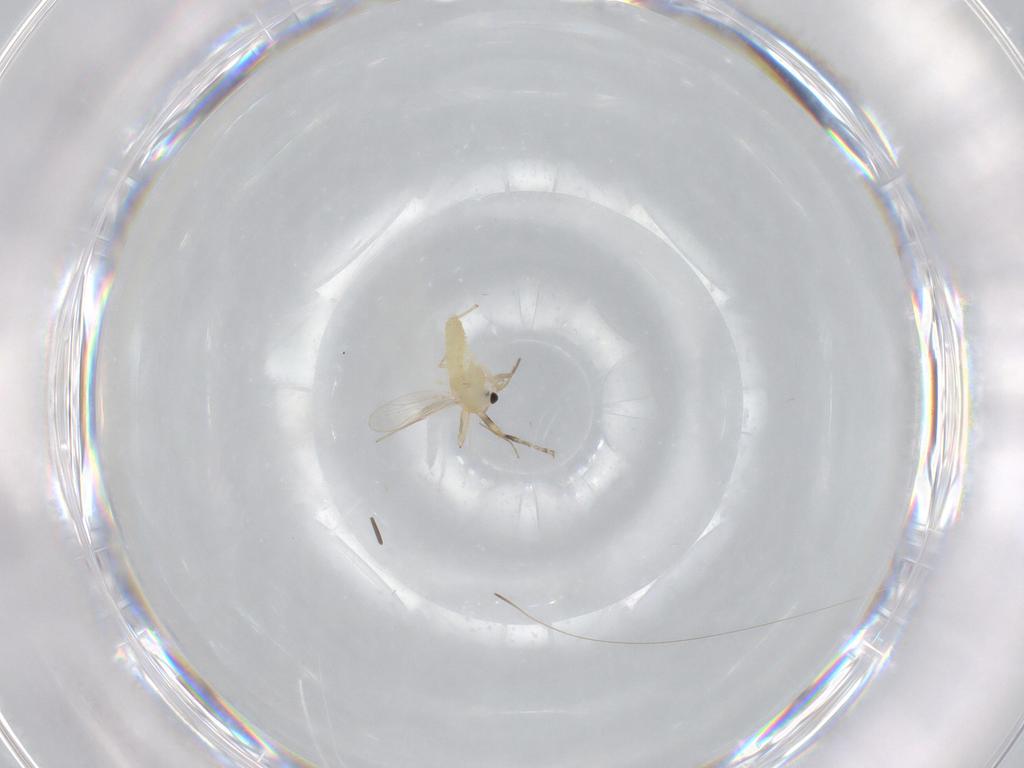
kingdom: Animalia
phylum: Arthropoda
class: Insecta
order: Diptera
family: Chironomidae
